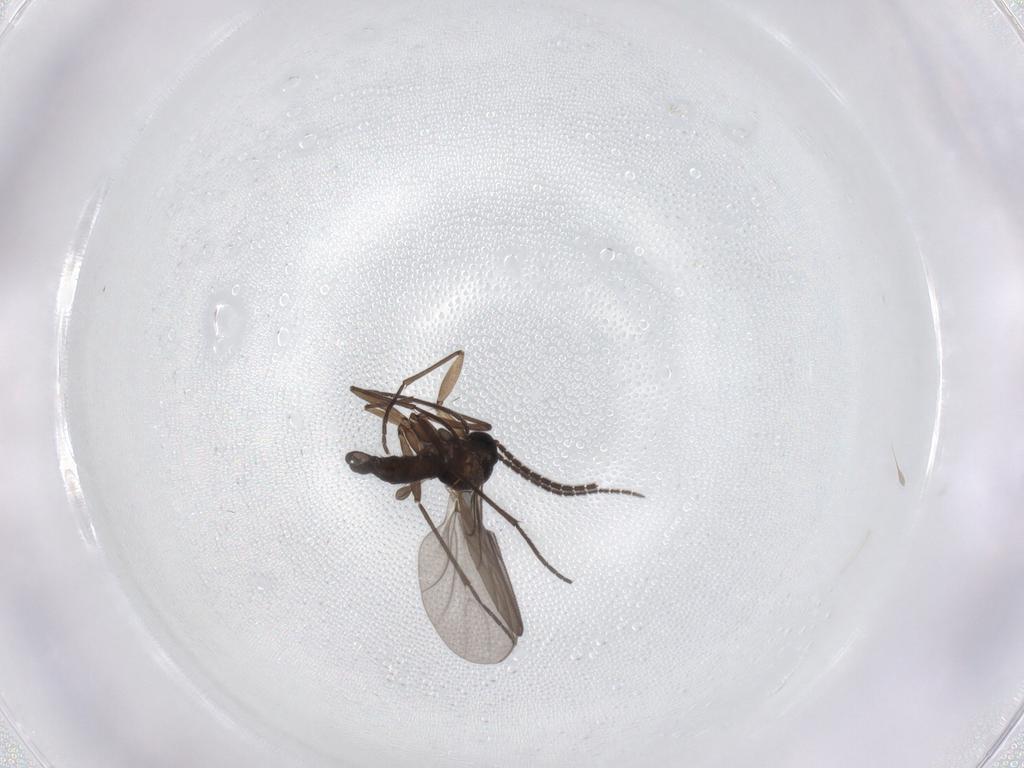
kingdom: Animalia
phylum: Arthropoda
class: Insecta
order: Diptera
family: Sciaridae
